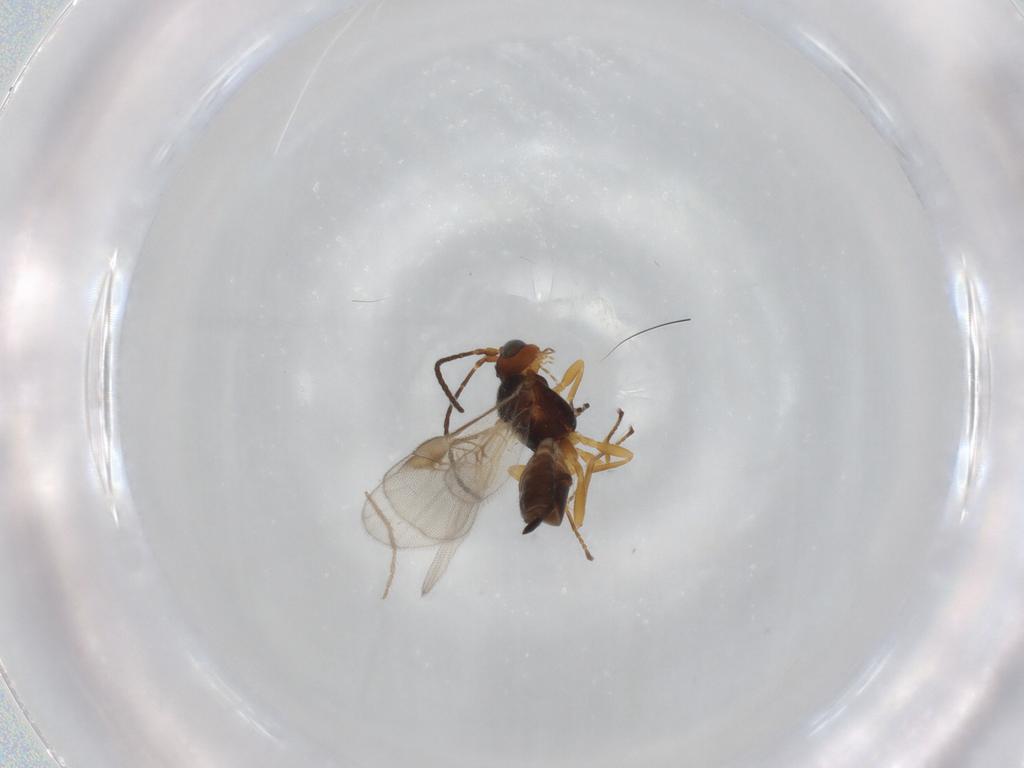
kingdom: Animalia
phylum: Arthropoda
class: Insecta
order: Hymenoptera
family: Braconidae
